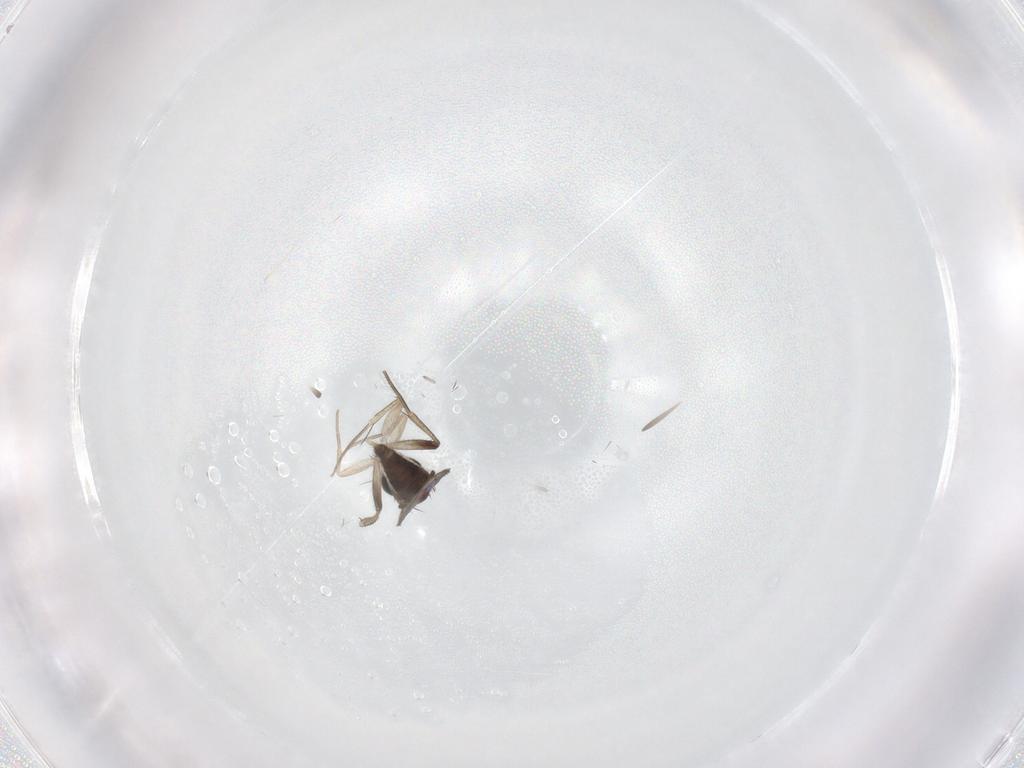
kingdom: Animalia
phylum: Arthropoda
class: Insecta
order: Diptera
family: Phoridae
